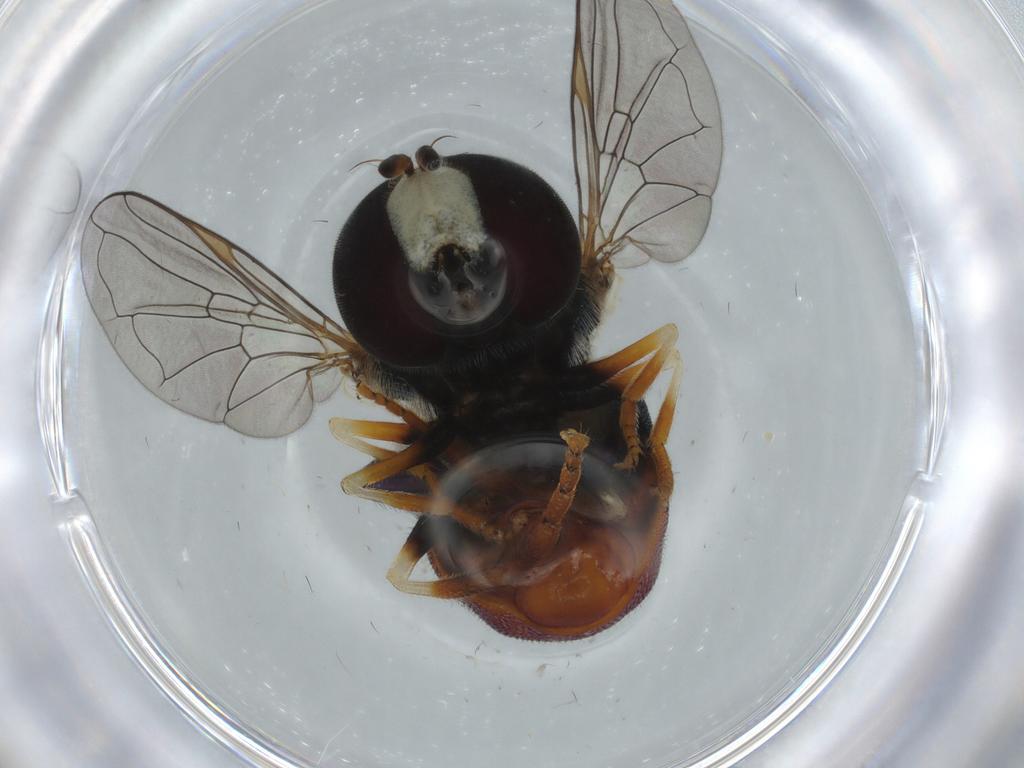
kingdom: Animalia
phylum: Arthropoda
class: Insecta
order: Diptera
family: Syrphidae
